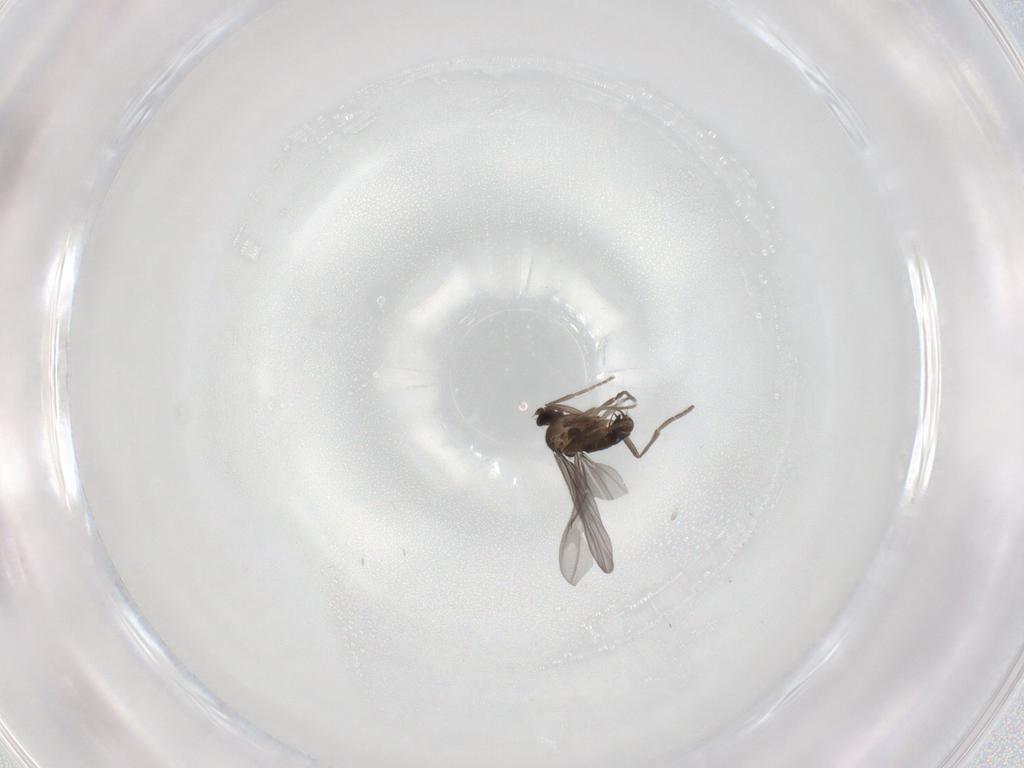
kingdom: Animalia
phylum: Arthropoda
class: Insecta
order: Diptera
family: Phoridae
